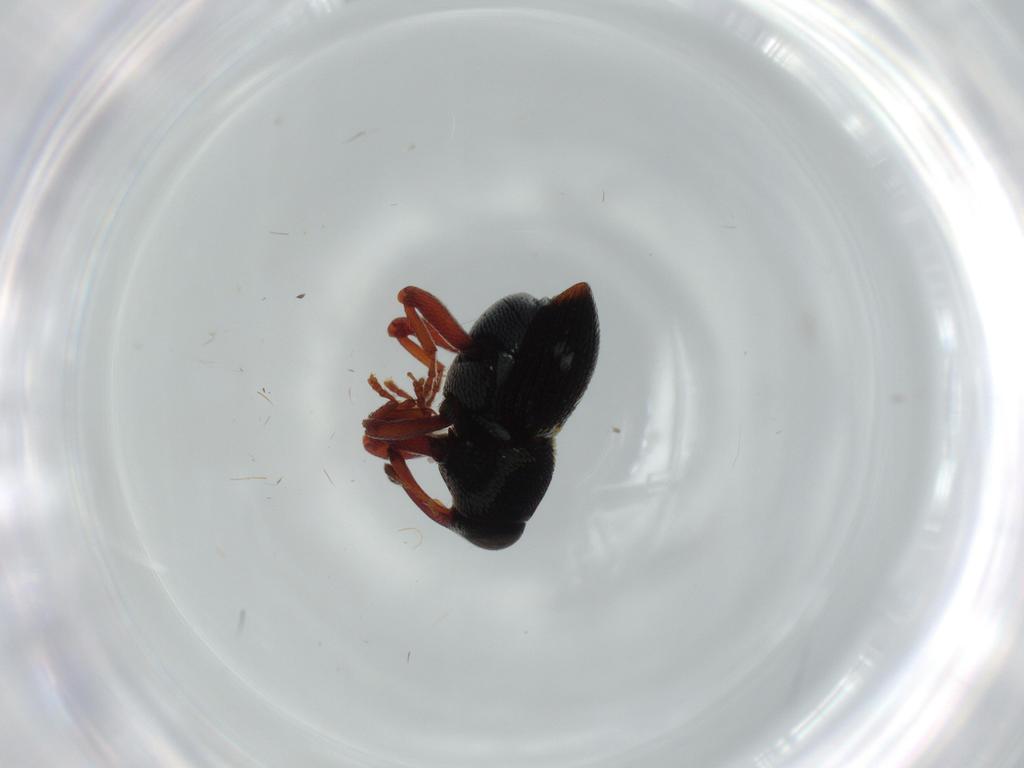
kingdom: Animalia
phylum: Arthropoda
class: Insecta
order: Coleoptera
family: Curculionidae
